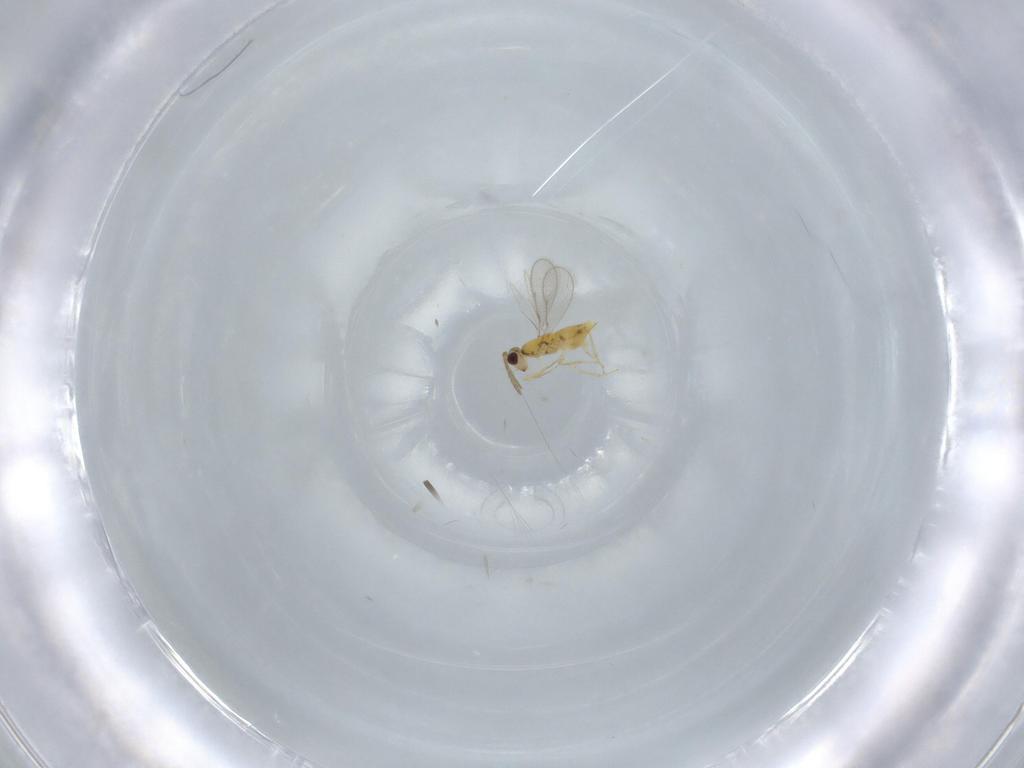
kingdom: Animalia
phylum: Arthropoda
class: Insecta
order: Hymenoptera
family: Aphelinidae
